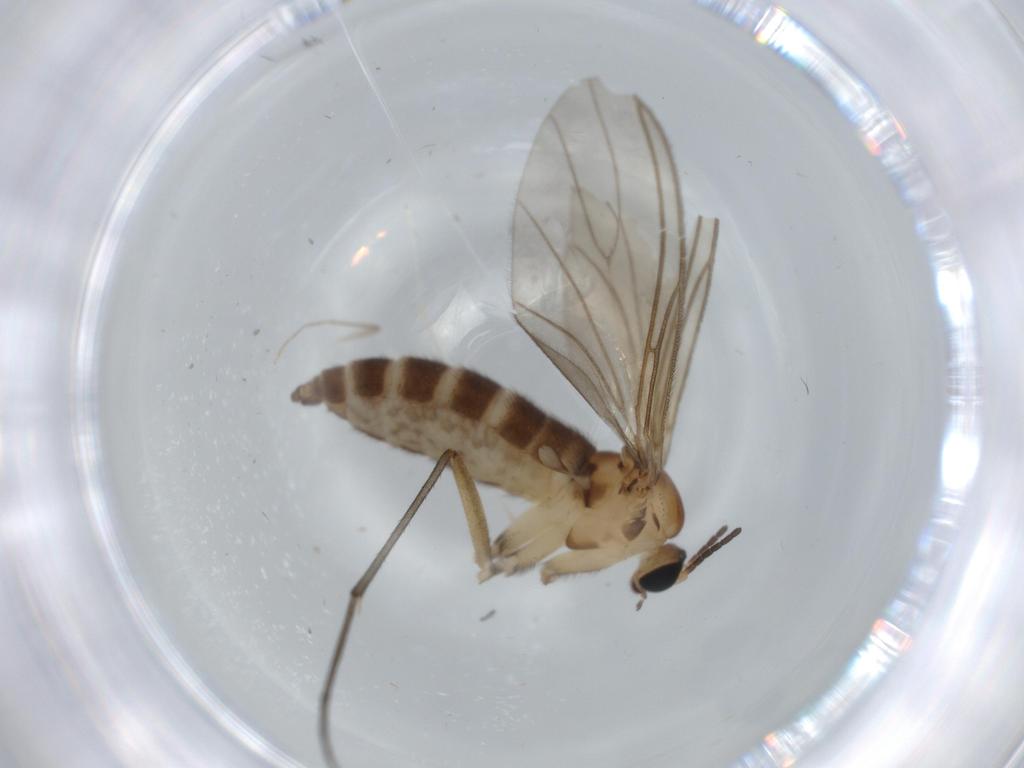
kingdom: Animalia
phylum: Arthropoda
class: Insecta
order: Diptera
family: Sciaridae
